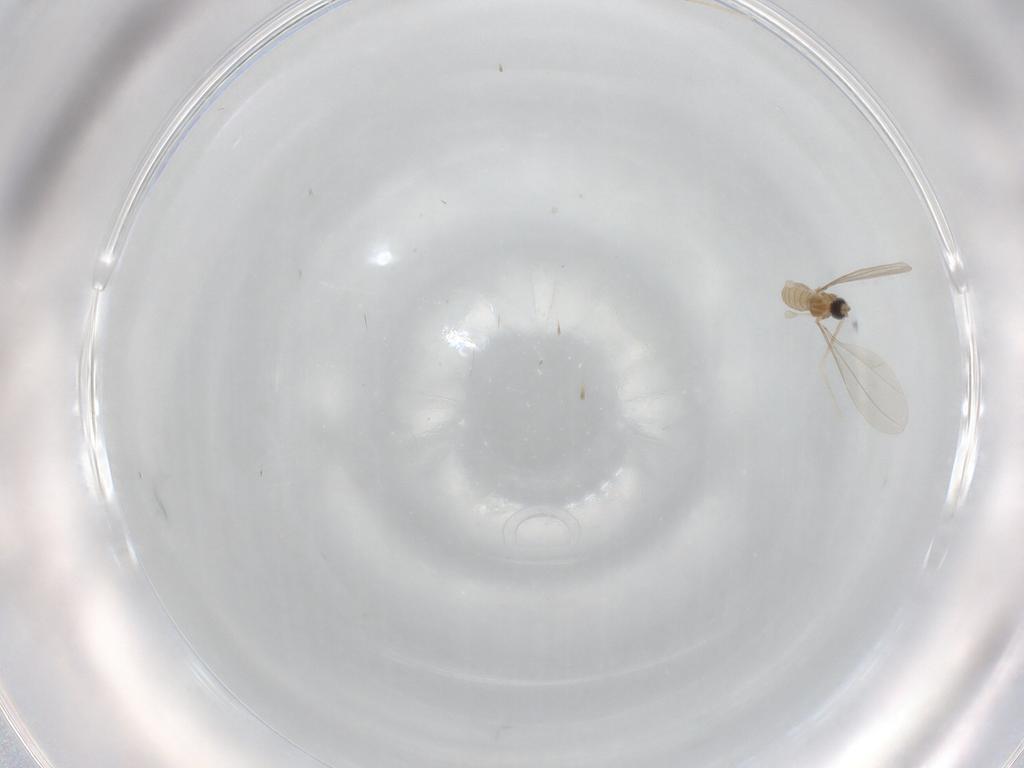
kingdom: Animalia
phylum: Arthropoda
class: Insecta
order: Diptera
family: Psychodidae
